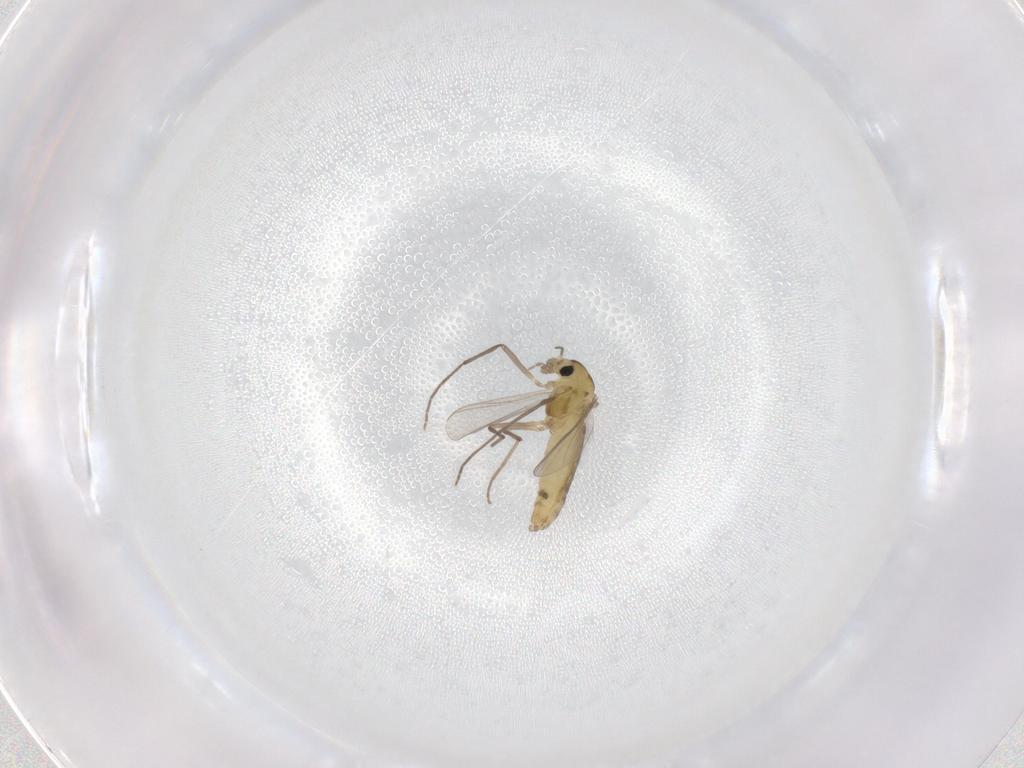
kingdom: Animalia
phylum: Arthropoda
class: Insecta
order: Diptera
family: Chironomidae
